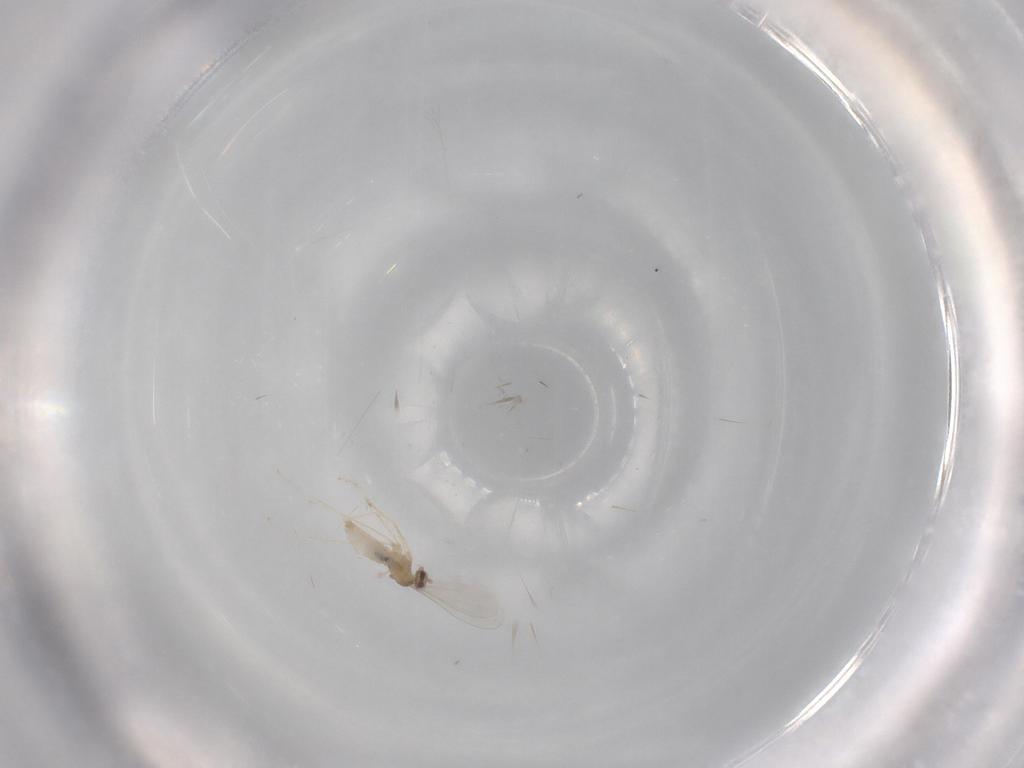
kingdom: Animalia
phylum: Arthropoda
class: Insecta
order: Diptera
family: Cecidomyiidae
